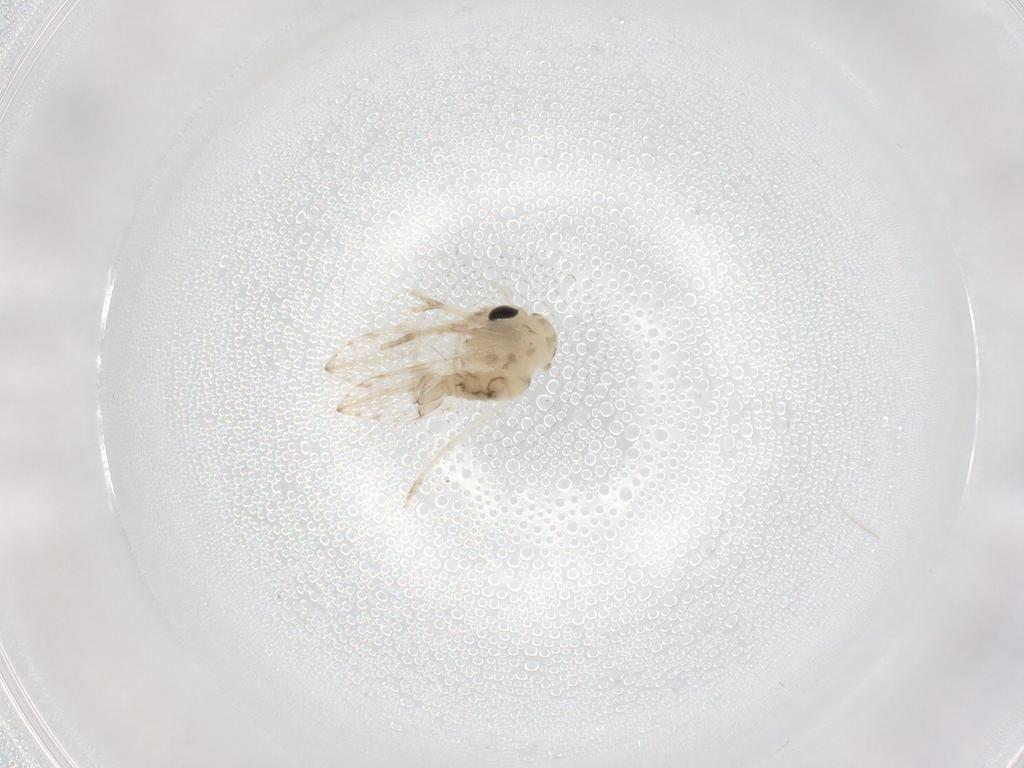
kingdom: Animalia
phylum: Arthropoda
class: Insecta
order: Diptera
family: Psychodidae
